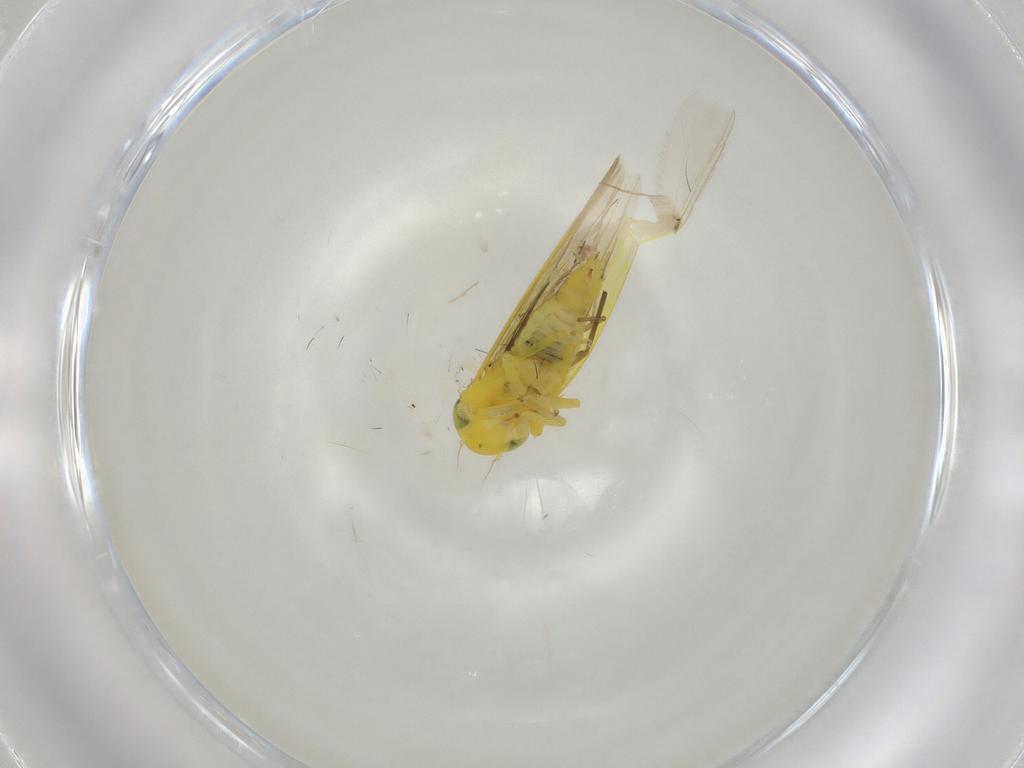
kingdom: Animalia
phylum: Arthropoda
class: Insecta
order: Hemiptera
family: Cicadellidae
